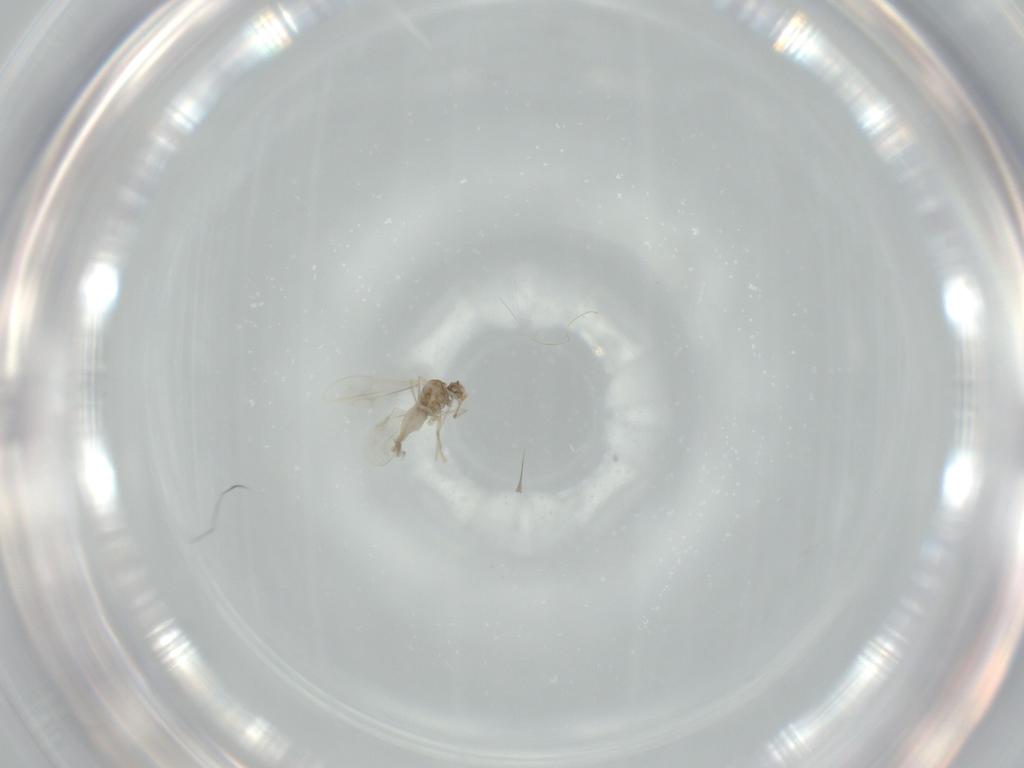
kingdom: Animalia
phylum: Arthropoda
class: Insecta
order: Diptera
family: Cecidomyiidae
